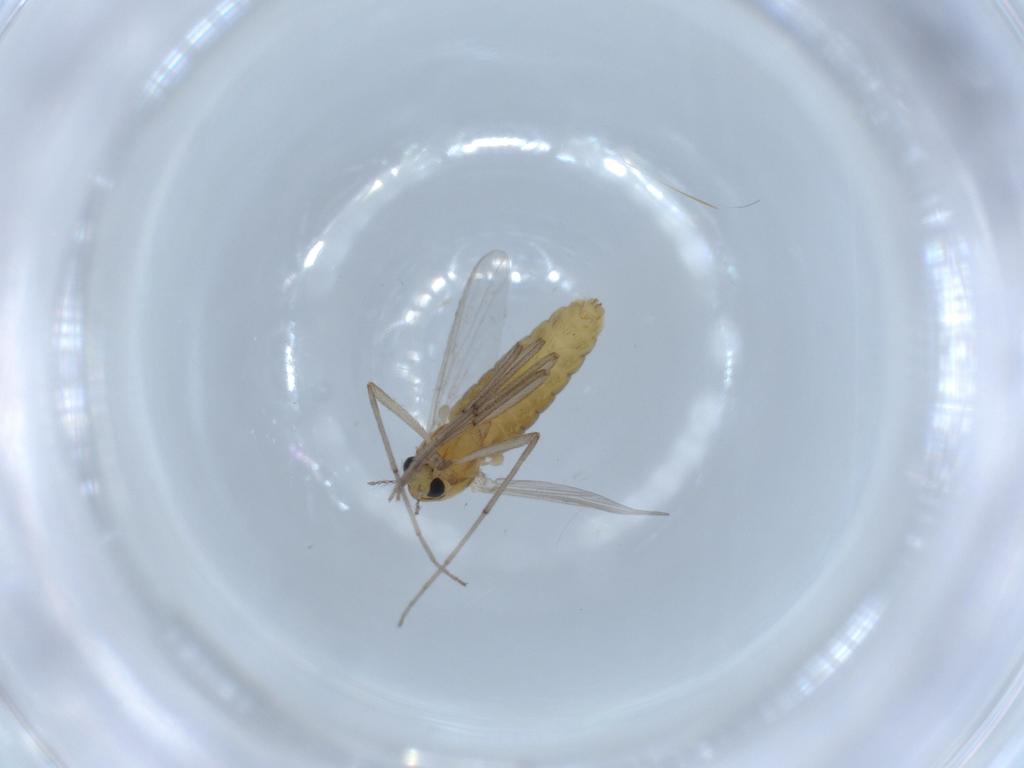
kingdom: Animalia
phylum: Arthropoda
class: Insecta
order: Diptera
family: Chironomidae
